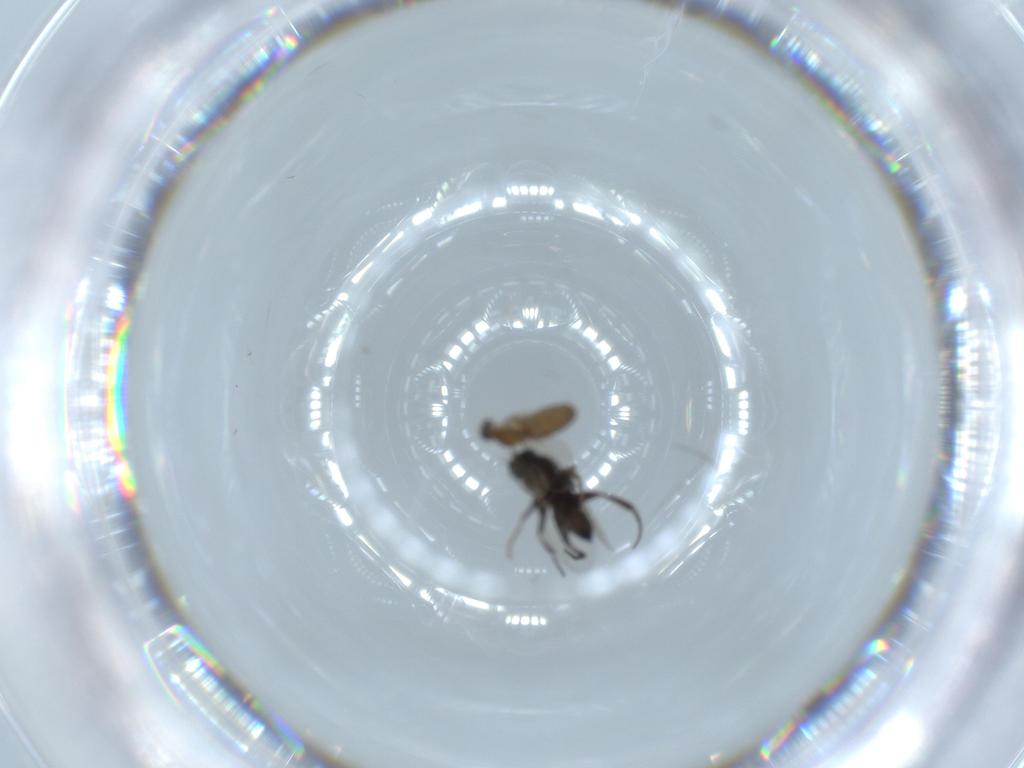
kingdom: Animalia
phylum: Arthropoda
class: Insecta
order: Diptera
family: Cecidomyiidae
